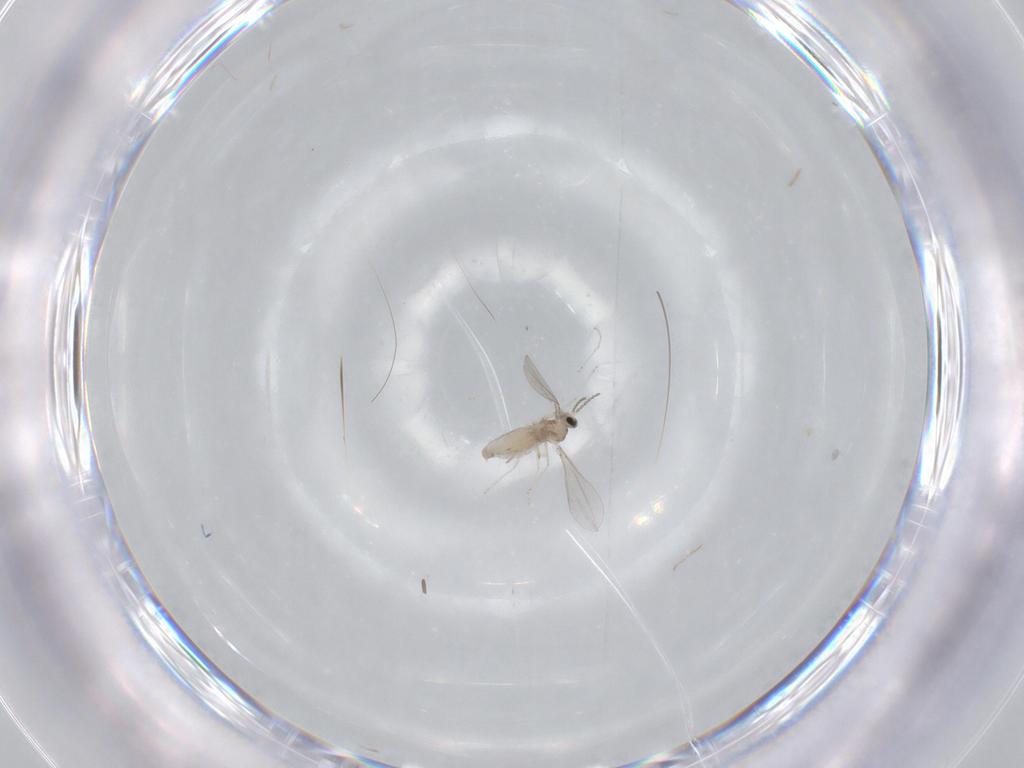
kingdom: Animalia
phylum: Arthropoda
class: Insecta
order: Diptera
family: Cecidomyiidae
